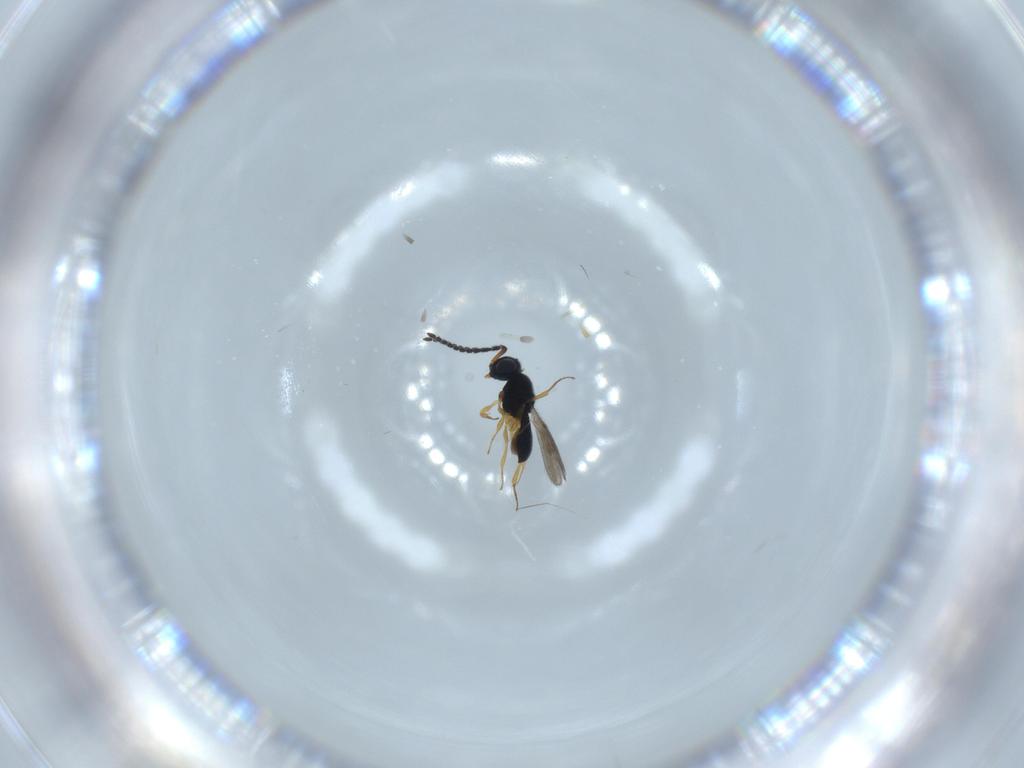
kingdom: Animalia
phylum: Arthropoda
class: Insecta
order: Hymenoptera
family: Scelionidae
